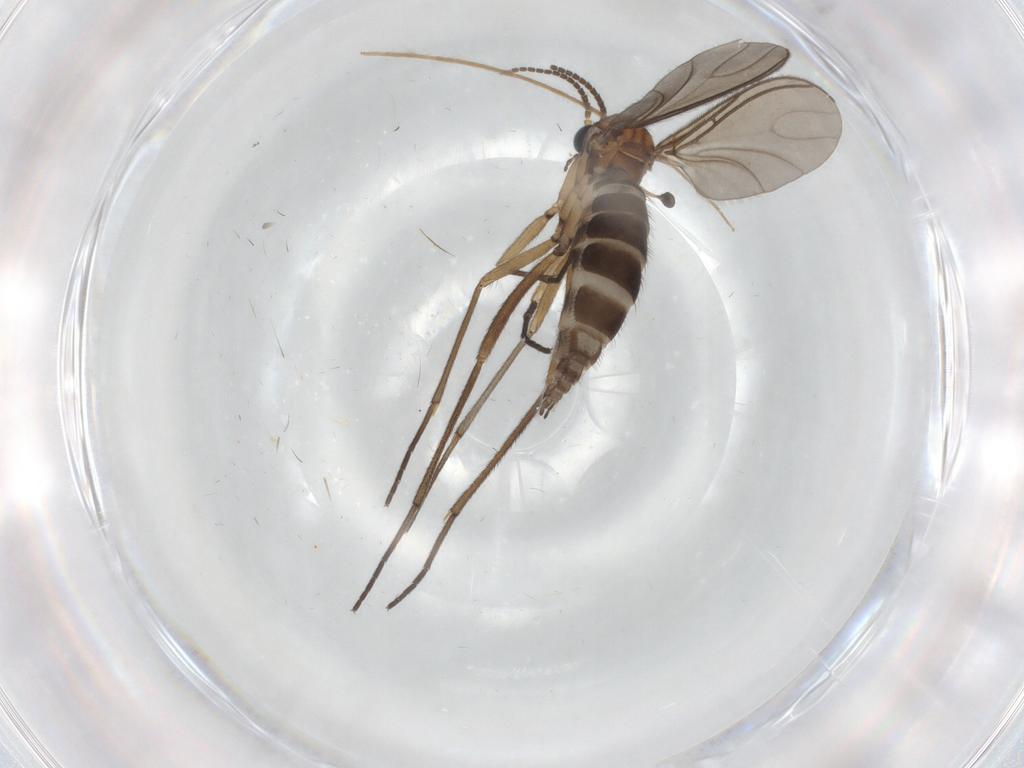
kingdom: Animalia
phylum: Arthropoda
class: Insecta
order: Diptera
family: Sciaridae
